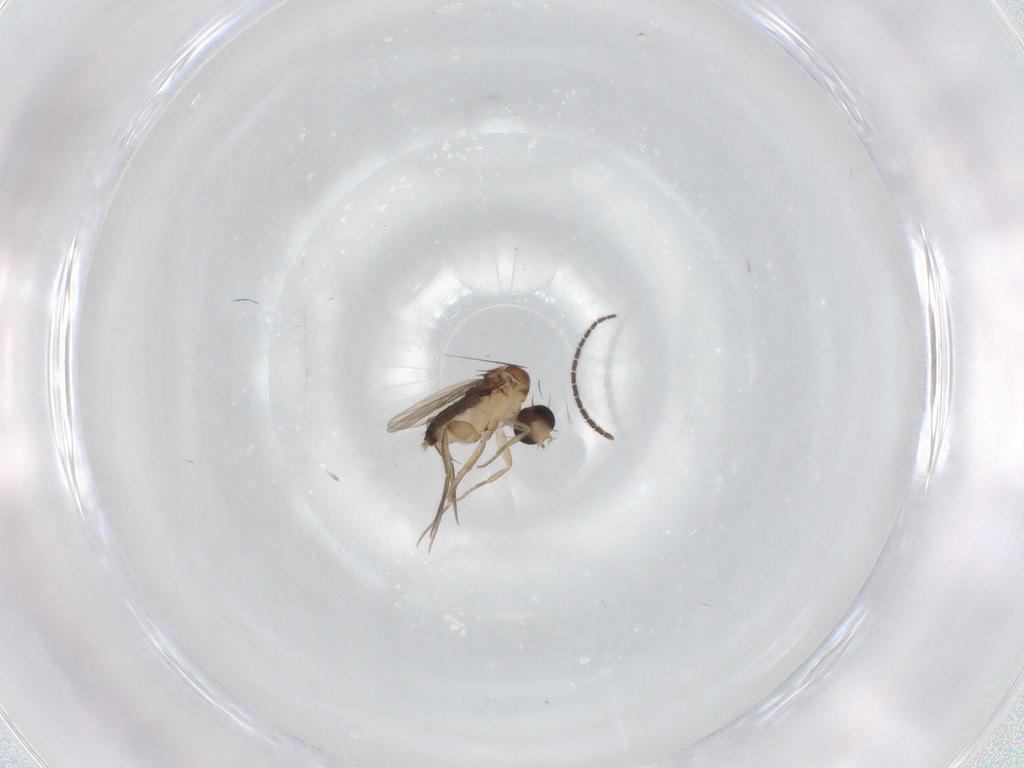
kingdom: Animalia
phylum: Arthropoda
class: Insecta
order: Diptera
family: Phoridae
